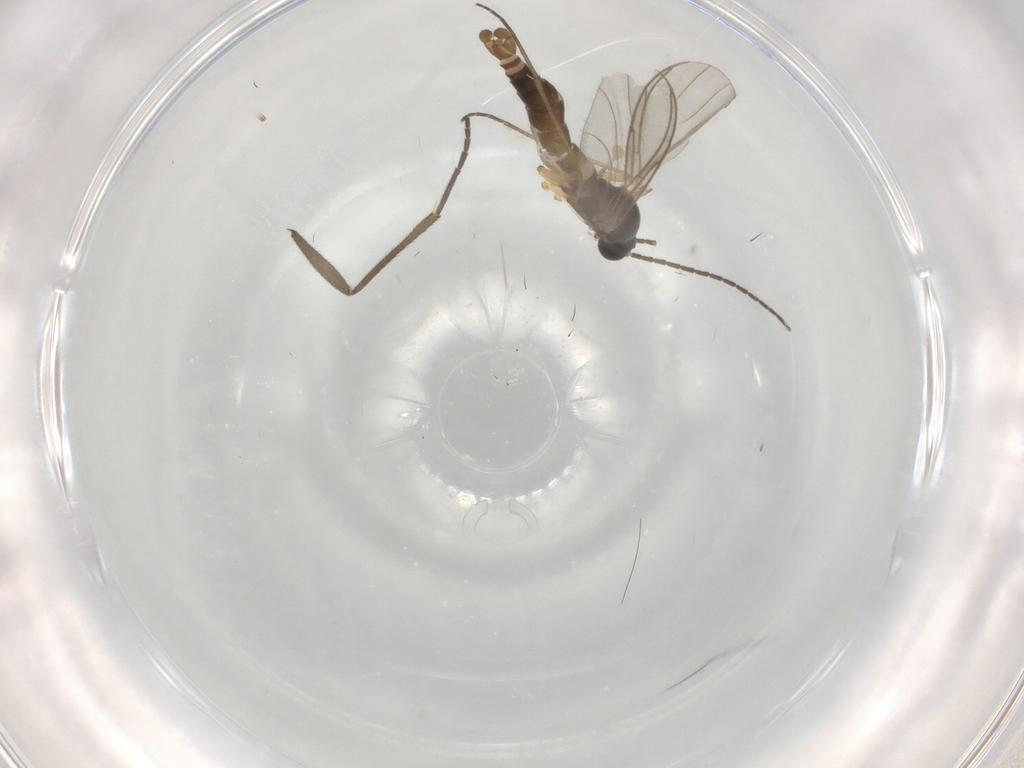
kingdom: Animalia
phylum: Arthropoda
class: Insecta
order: Diptera
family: Sciaridae
